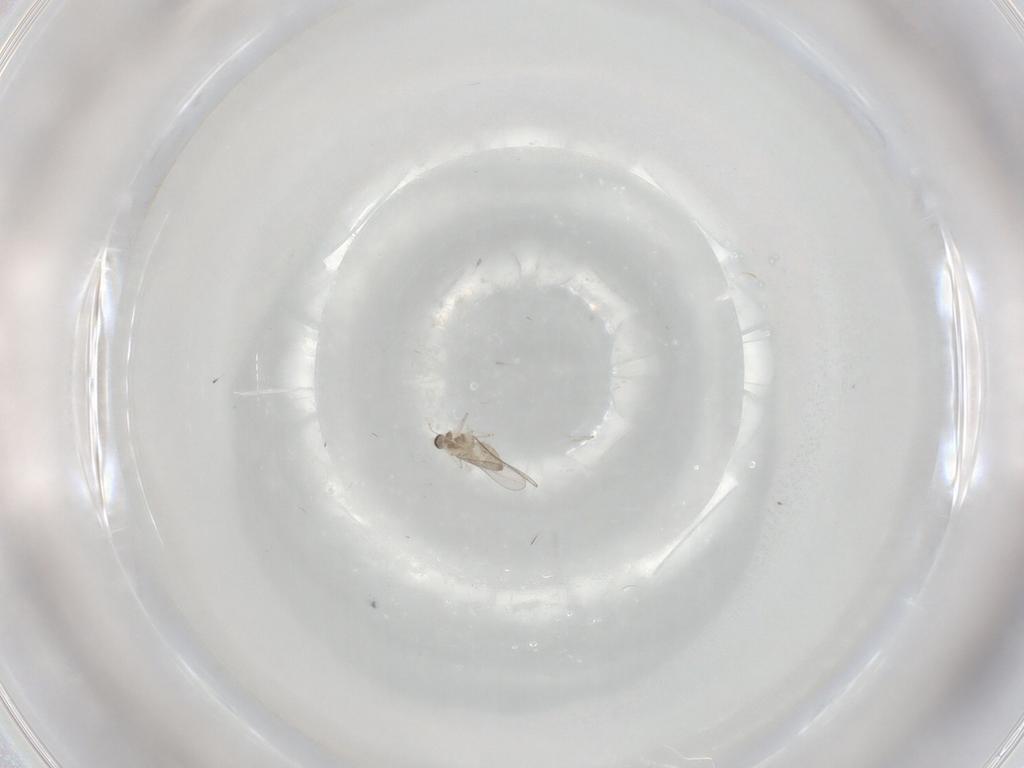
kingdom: Animalia
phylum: Arthropoda
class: Insecta
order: Diptera
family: Cecidomyiidae
